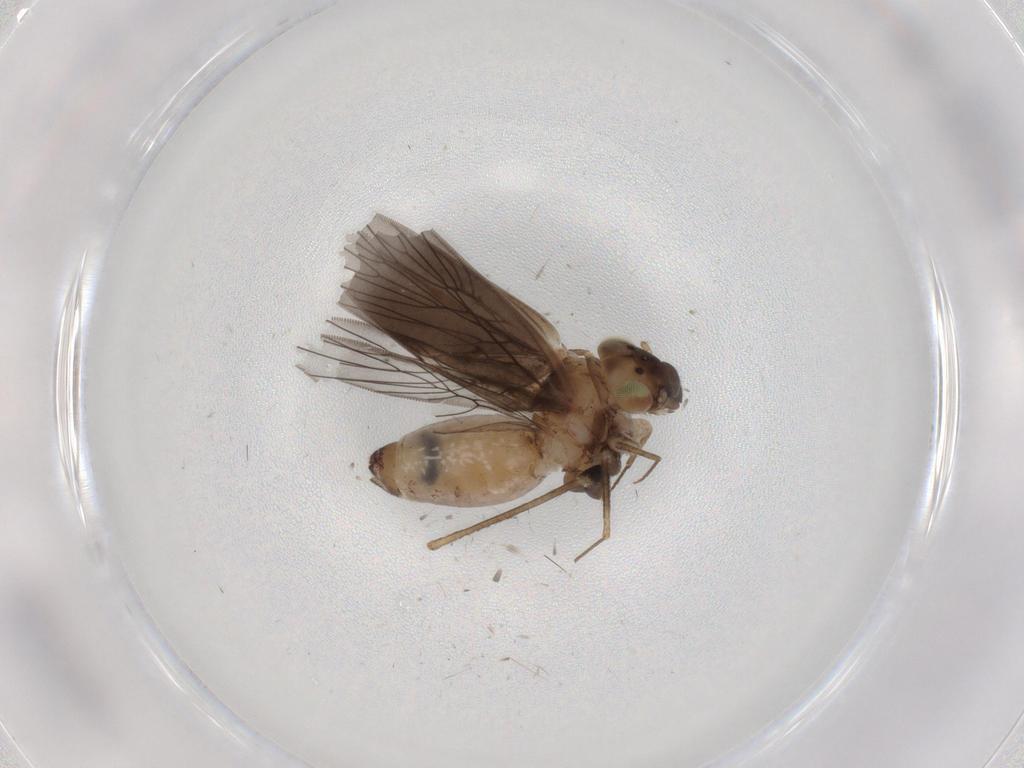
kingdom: Animalia
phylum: Arthropoda
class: Insecta
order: Psocodea
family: Lepidopsocidae
